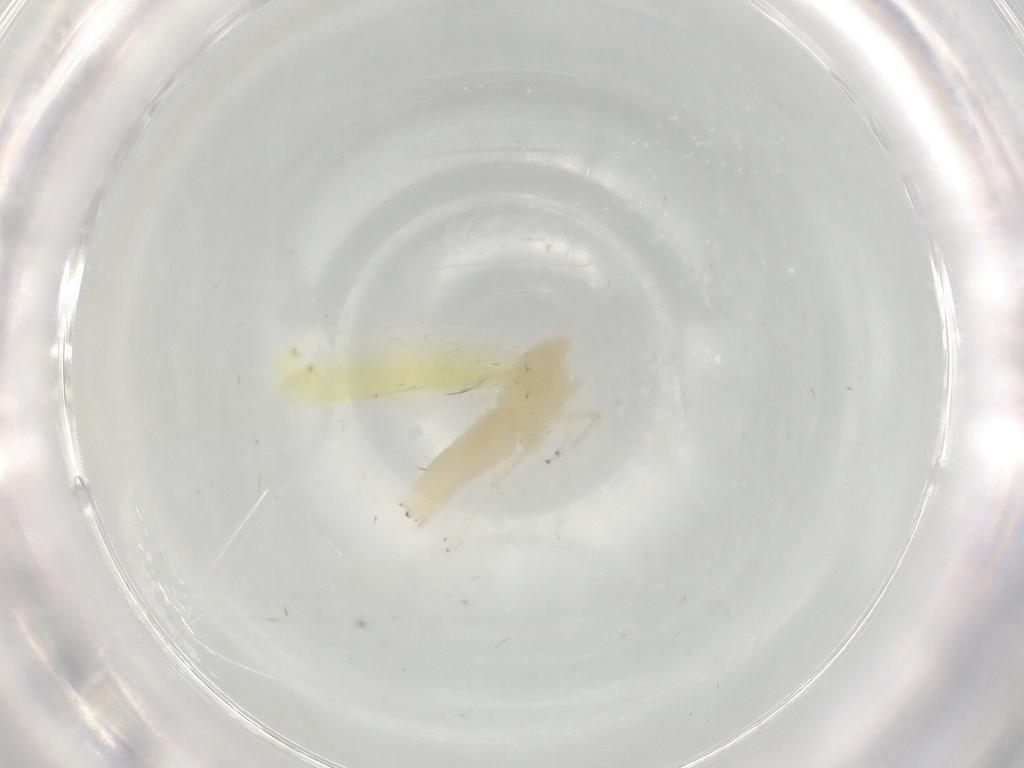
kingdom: Animalia
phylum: Arthropoda
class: Insecta
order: Hemiptera
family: Cicadellidae
